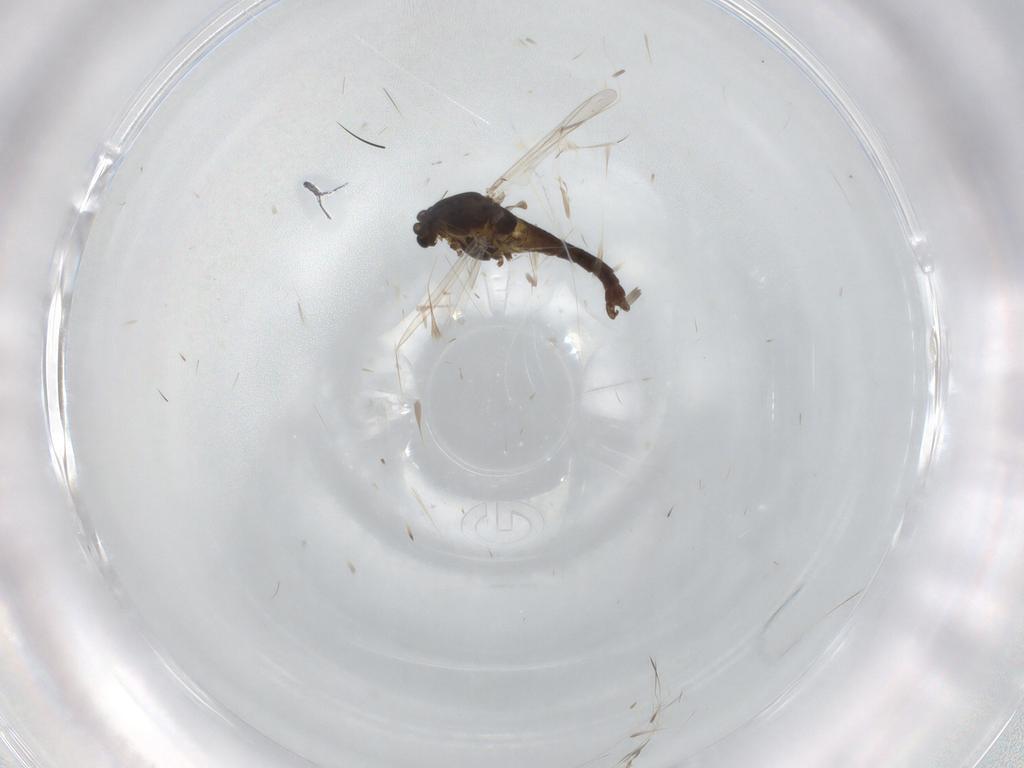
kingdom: Animalia
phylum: Arthropoda
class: Insecta
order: Diptera
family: Chironomidae
